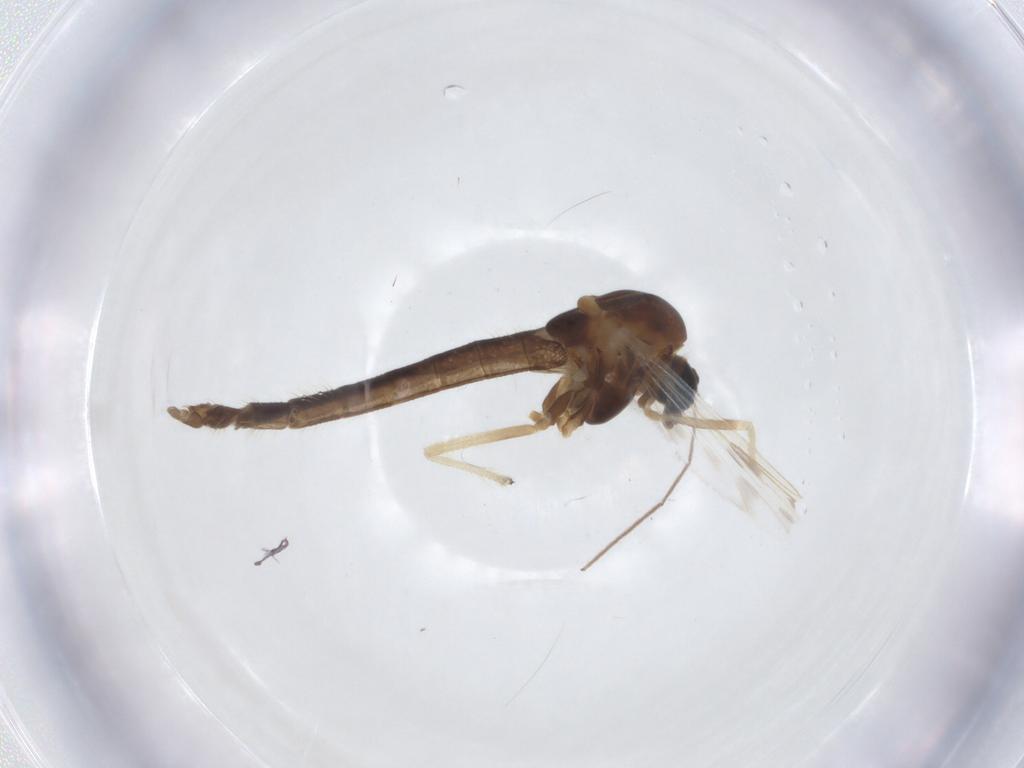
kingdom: Animalia
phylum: Arthropoda
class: Insecta
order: Diptera
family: Chironomidae
